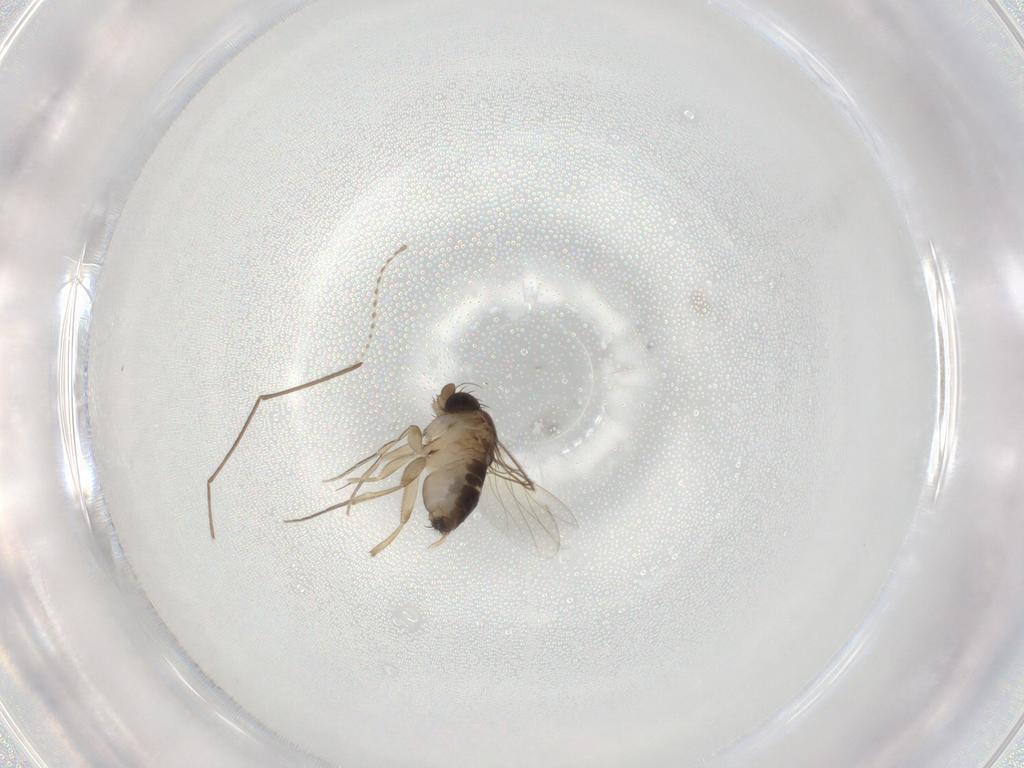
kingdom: Animalia
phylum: Arthropoda
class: Insecta
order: Diptera
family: Phoridae
